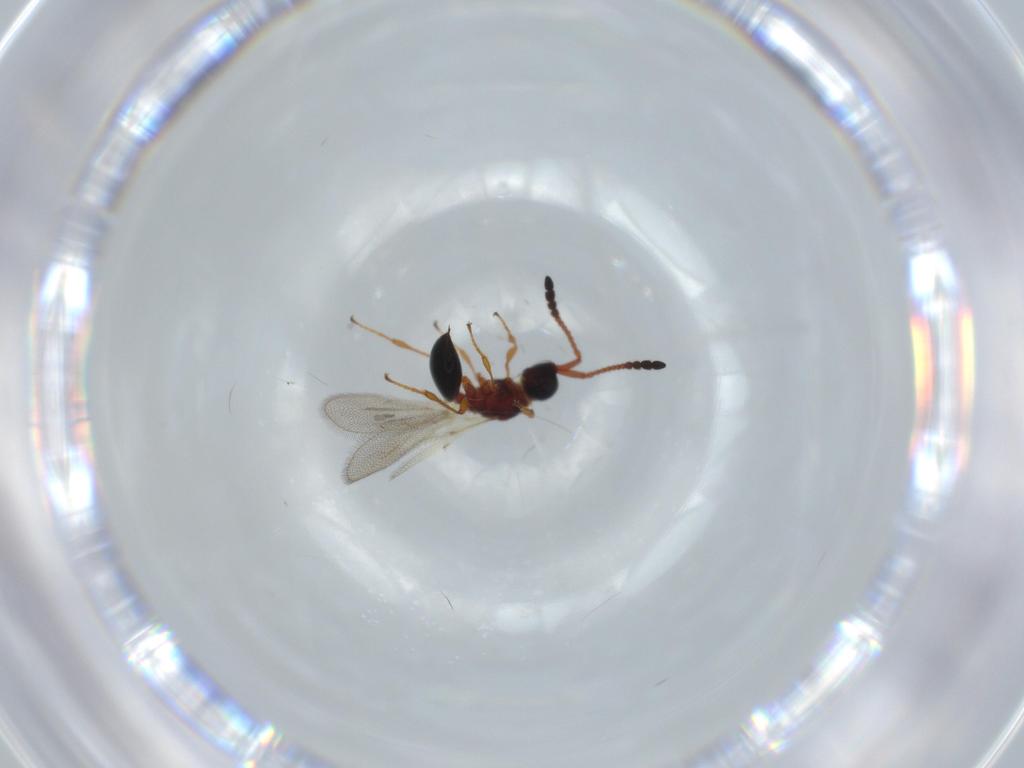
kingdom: Animalia
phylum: Arthropoda
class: Insecta
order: Hymenoptera
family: Diapriidae
